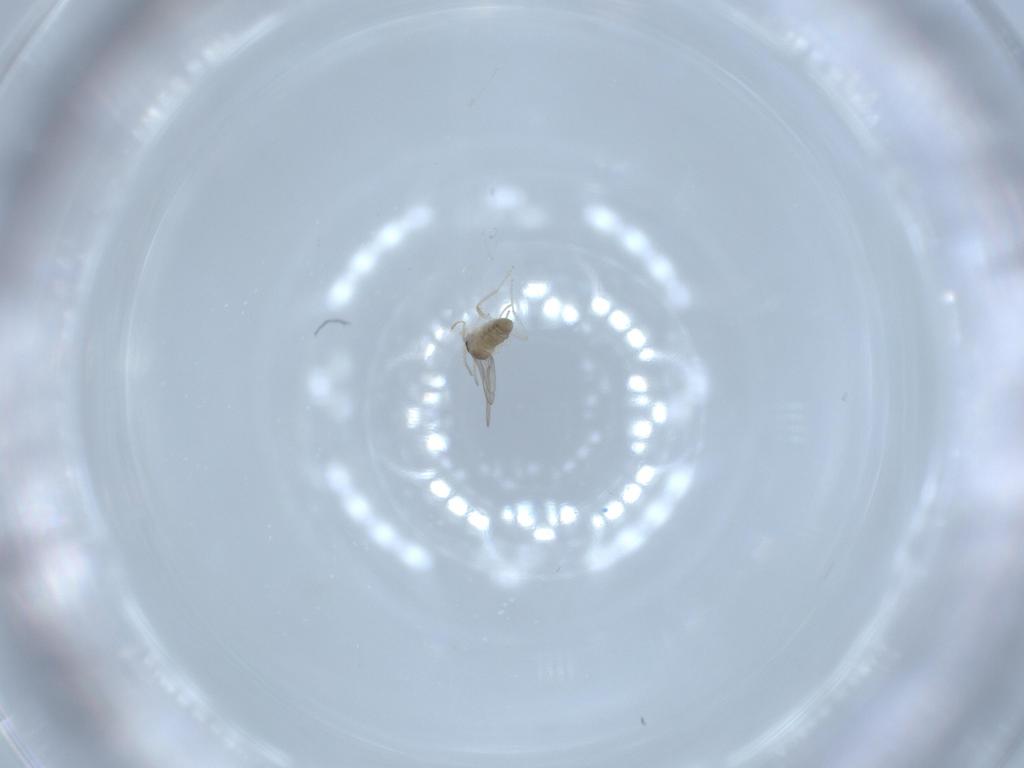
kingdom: Animalia
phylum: Arthropoda
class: Insecta
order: Diptera
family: Cecidomyiidae
